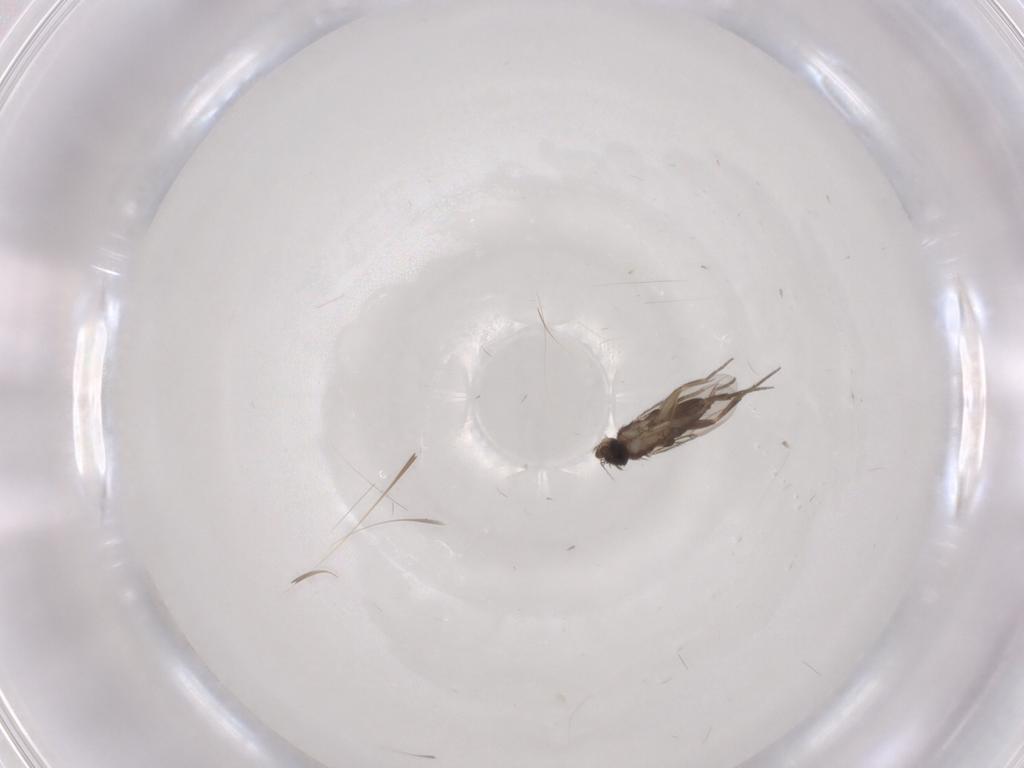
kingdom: Animalia
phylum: Arthropoda
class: Insecta
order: Diptera
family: Phoridae
